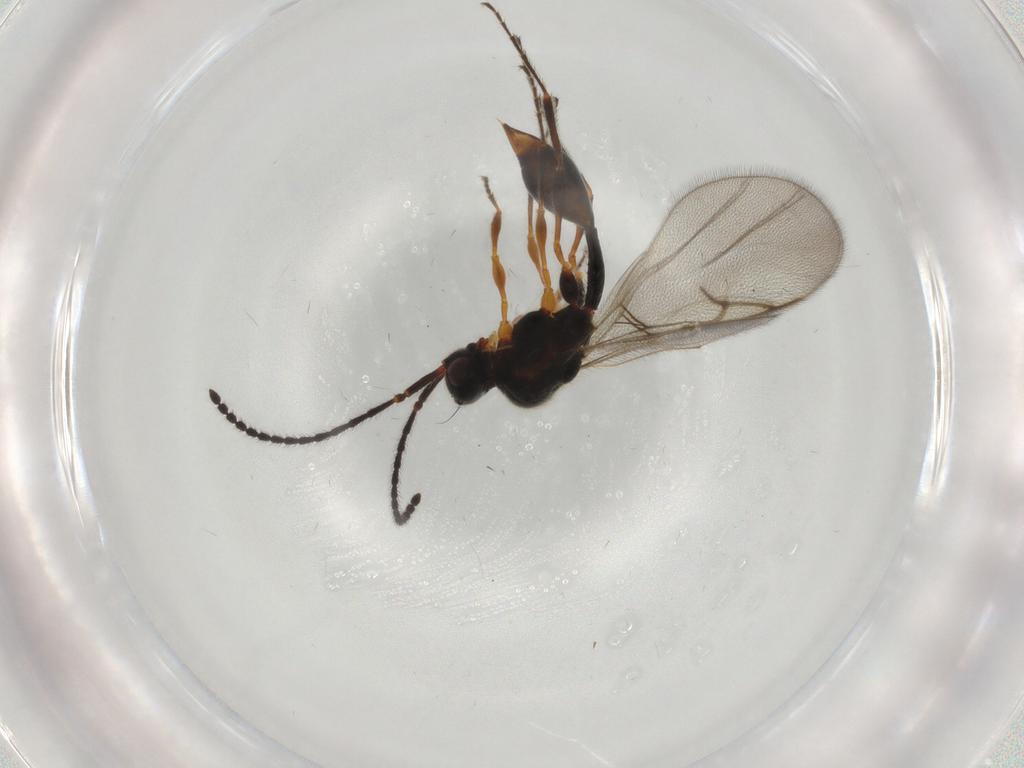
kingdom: Animalia
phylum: Arthropoda
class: Insecta
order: Hymenoptera
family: Diapriidae
